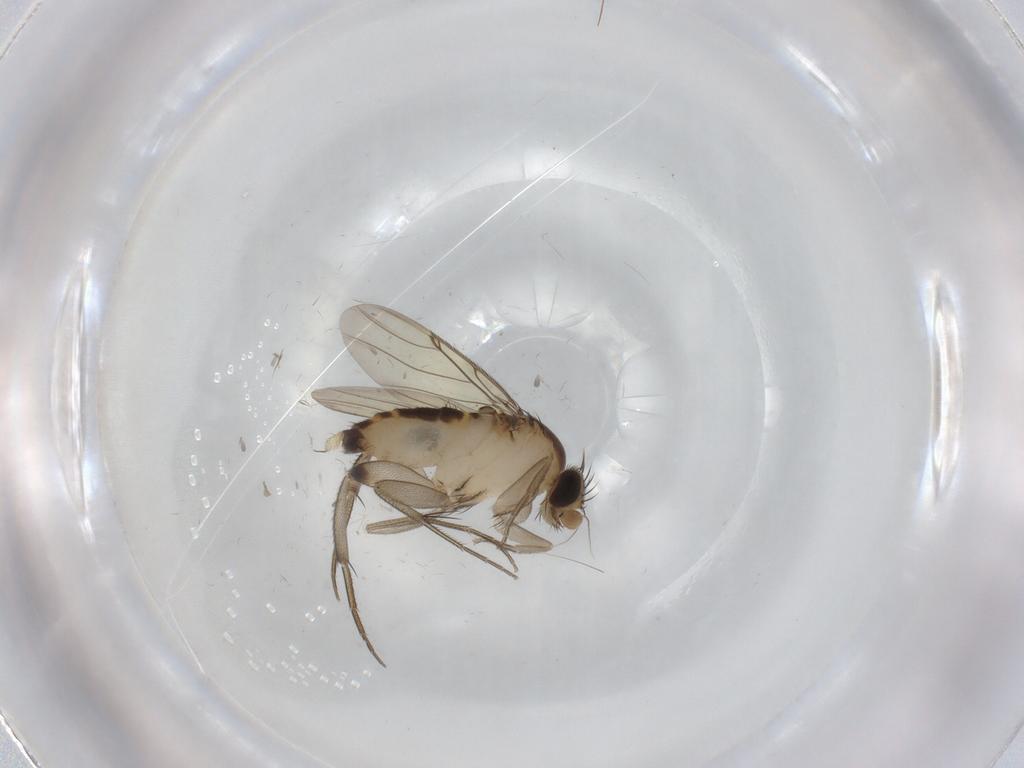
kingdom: Animalia
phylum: Arthropoda
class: Insecta
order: Diptera
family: Phoridae
